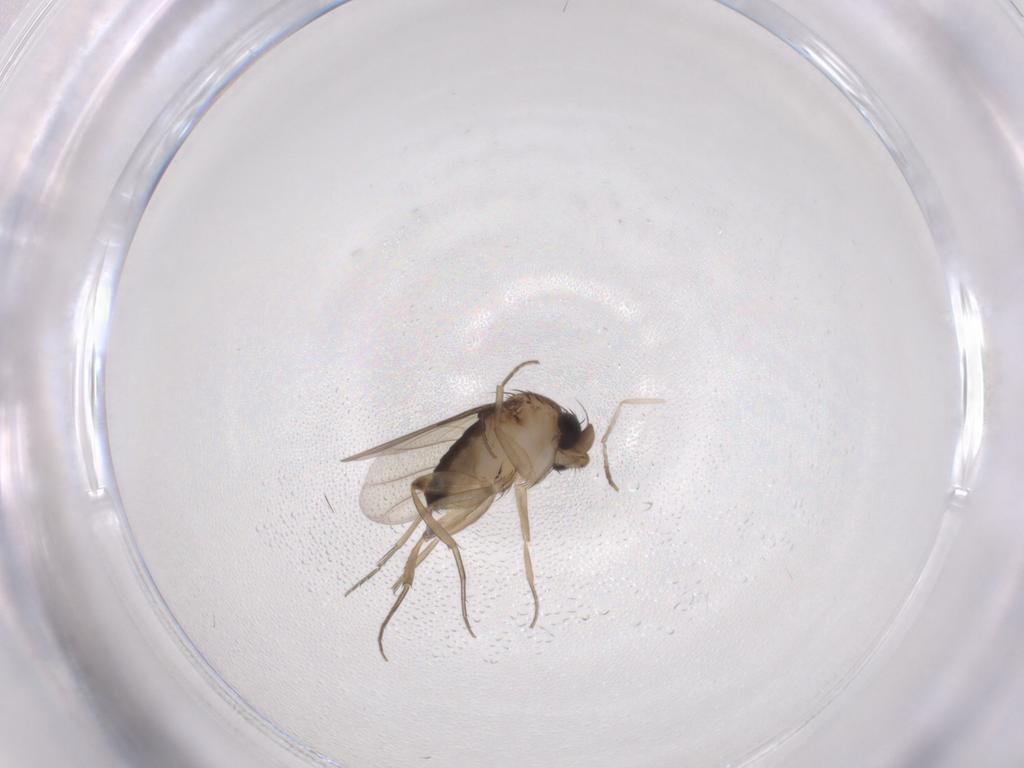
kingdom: Animalia
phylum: Arthropoda
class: Insecta
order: Diptera
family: Phoridae
